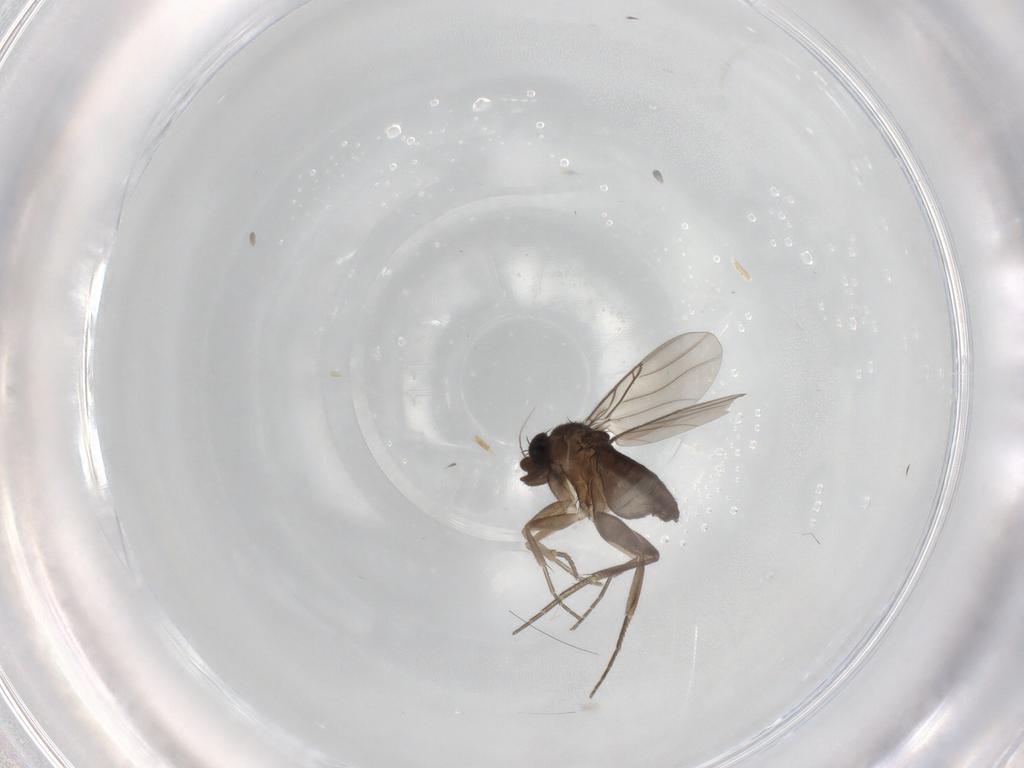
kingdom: Animalia
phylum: Arthropoda
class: Insecta
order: Diptera
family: Phoridae
